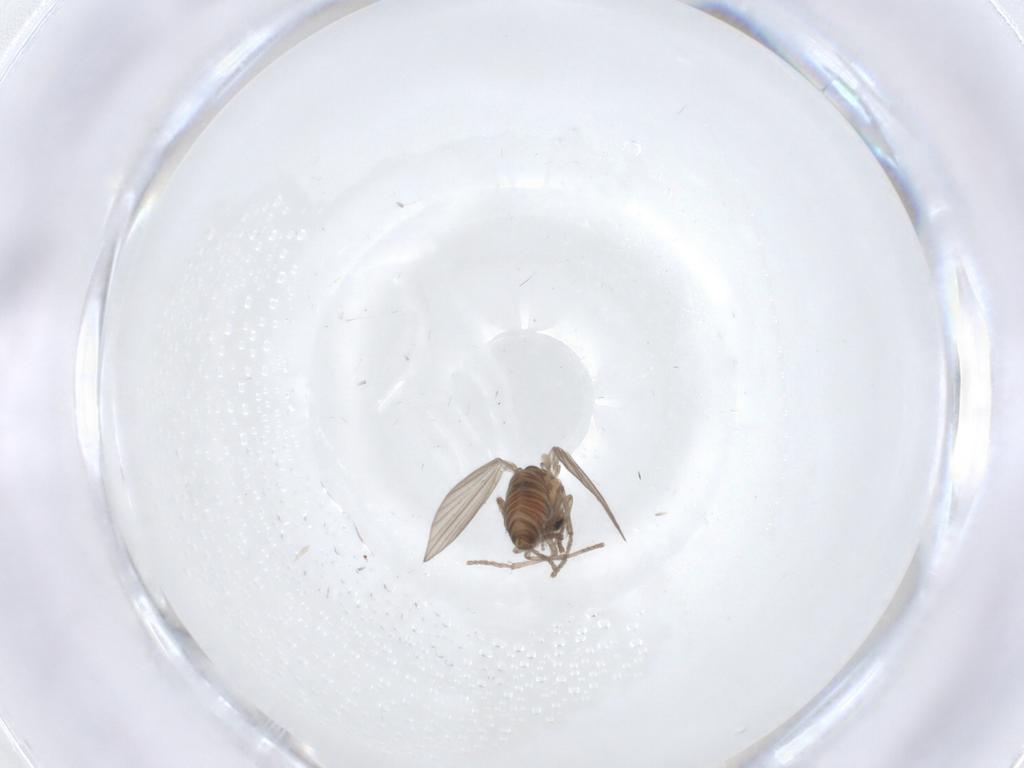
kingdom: Animalia
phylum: Arthropoda
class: Insecta
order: Diptera
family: Psychodidae
